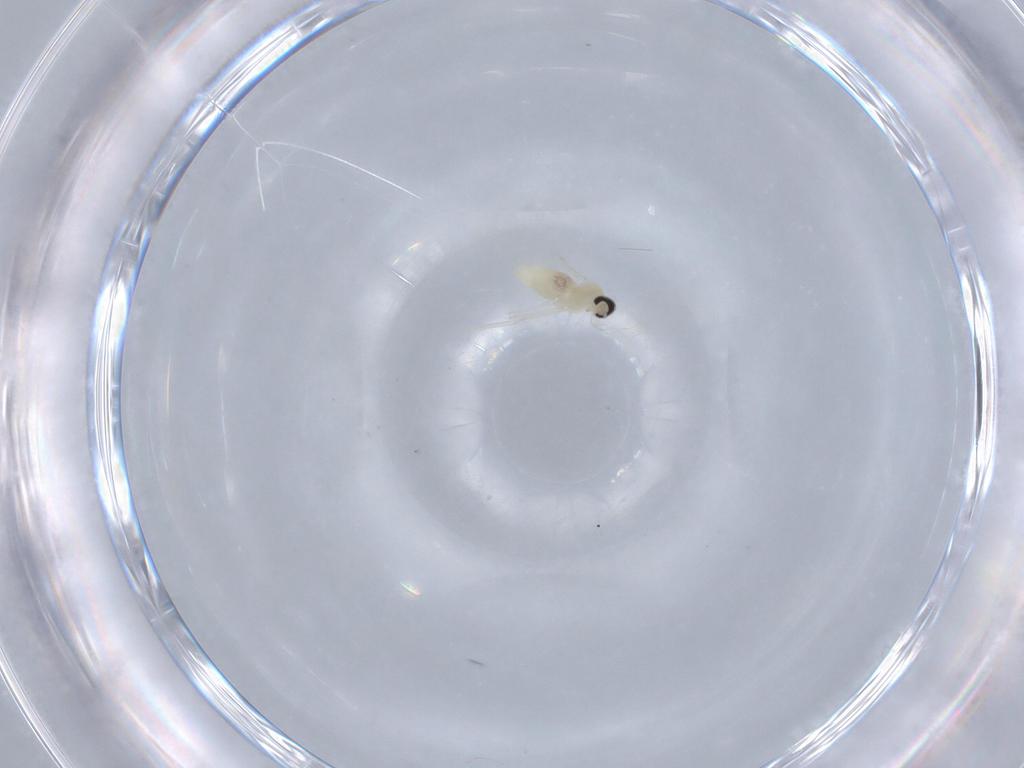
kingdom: Animalia
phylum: Arthropoda
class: Insecta
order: Diptera
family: Cecidomyiidae
